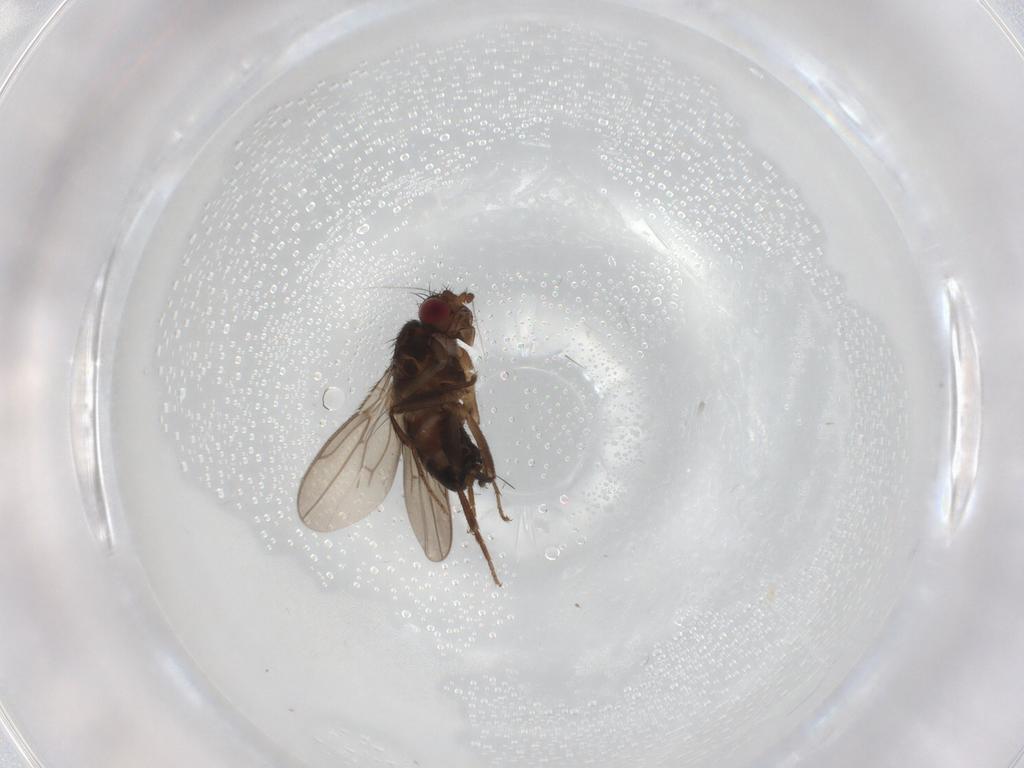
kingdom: Animalia
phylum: Arthropoda
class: Insecta
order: Diptera
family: Sphaeroceridae
